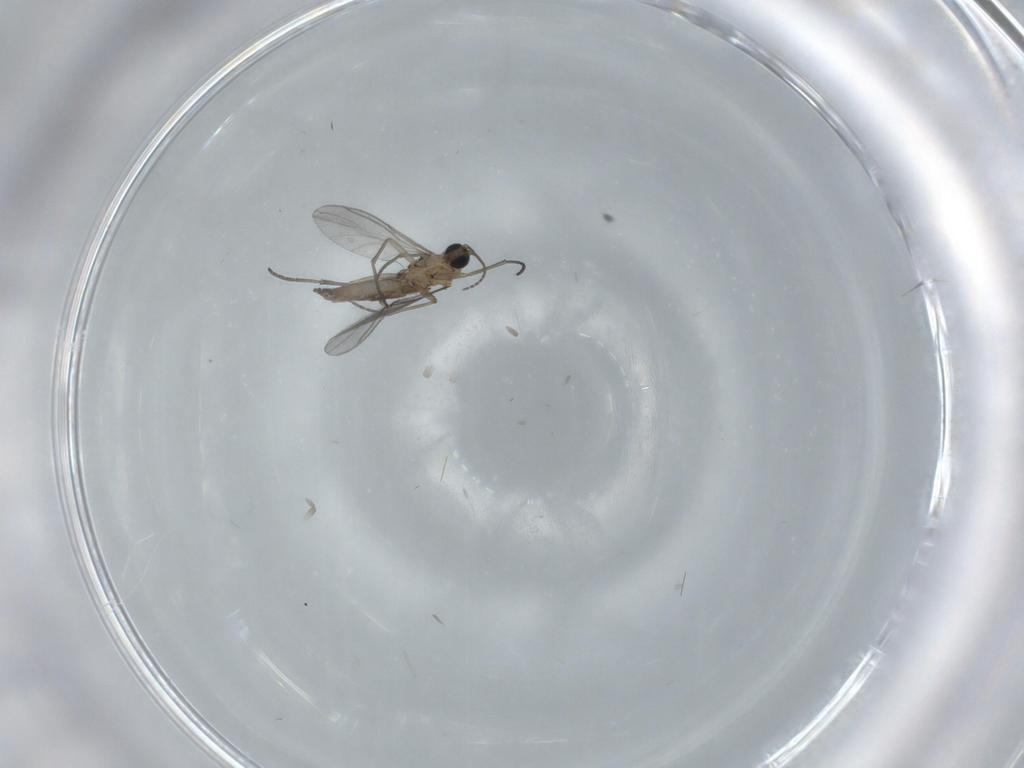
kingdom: Animalia
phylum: Arthropoda
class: Insecta
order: Diptera
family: Sciaridae
